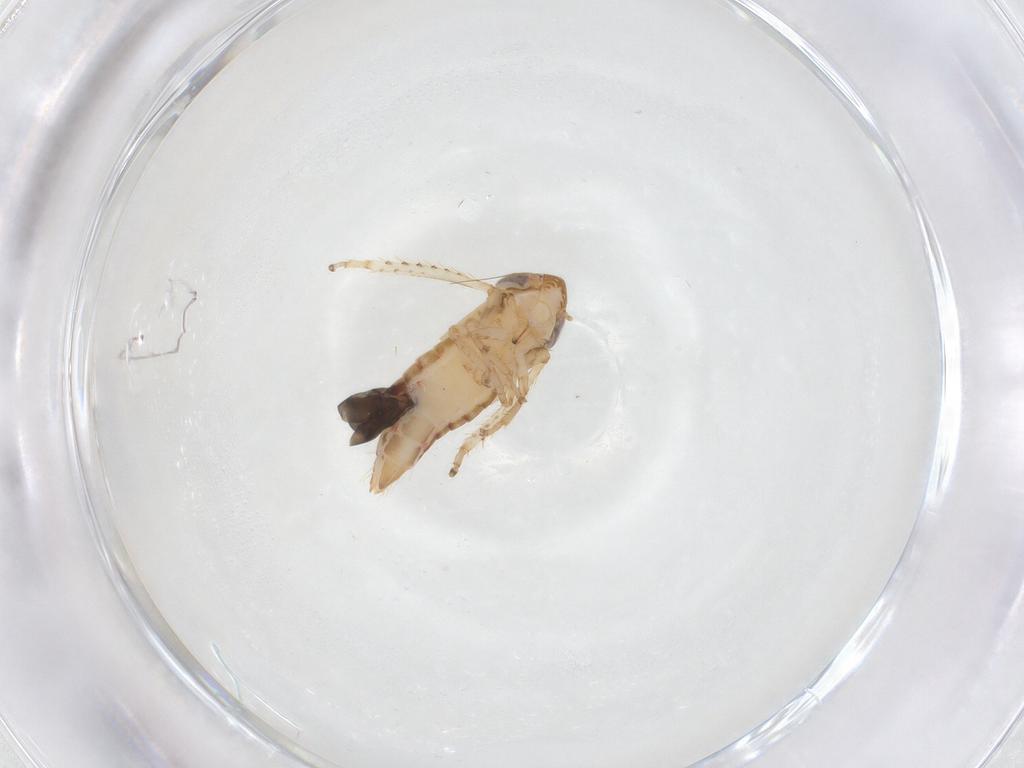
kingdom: Animalia
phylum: Arthropoda
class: Insecta
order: Hemiptera
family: Cicadellidae
